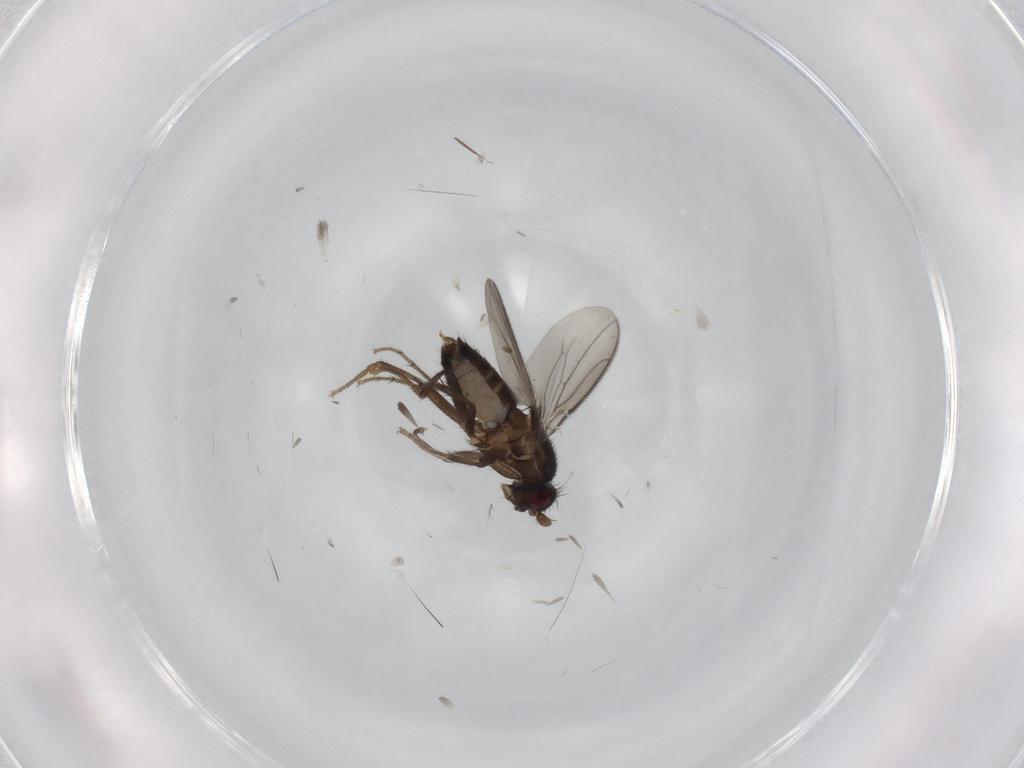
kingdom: Animalia
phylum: Arthropoda
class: Insecta
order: Diptera
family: Sphaeroceridae
